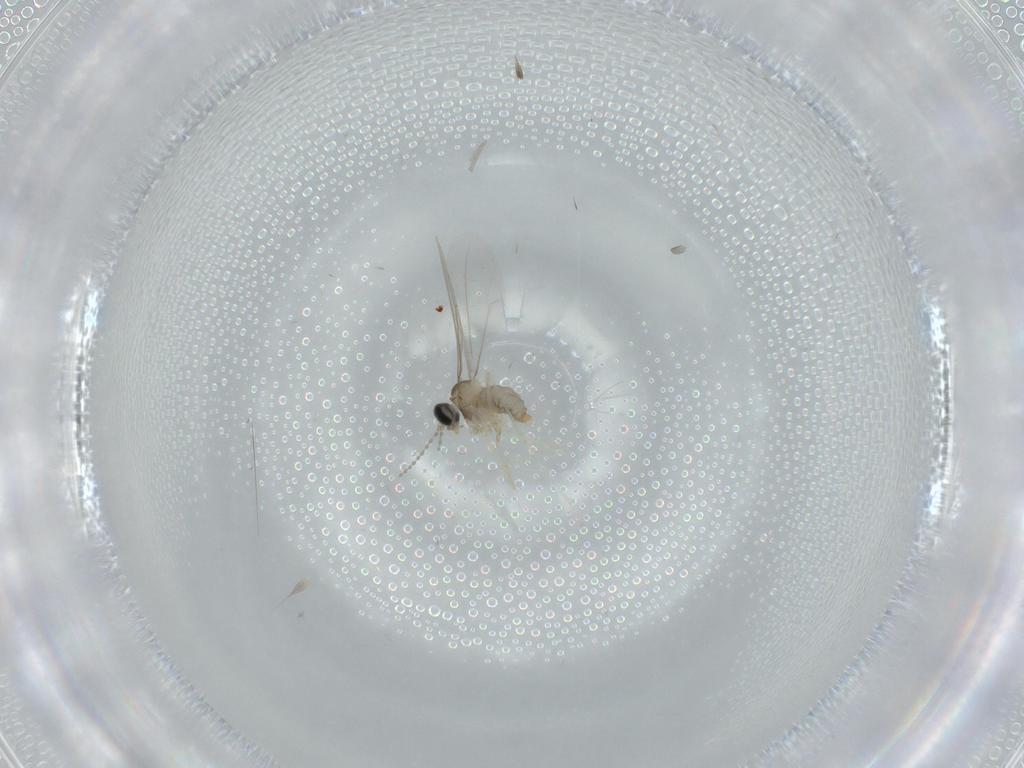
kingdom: Animalia
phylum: Arthropoda
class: Insecta
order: Diptera
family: Cecidomyiidae
